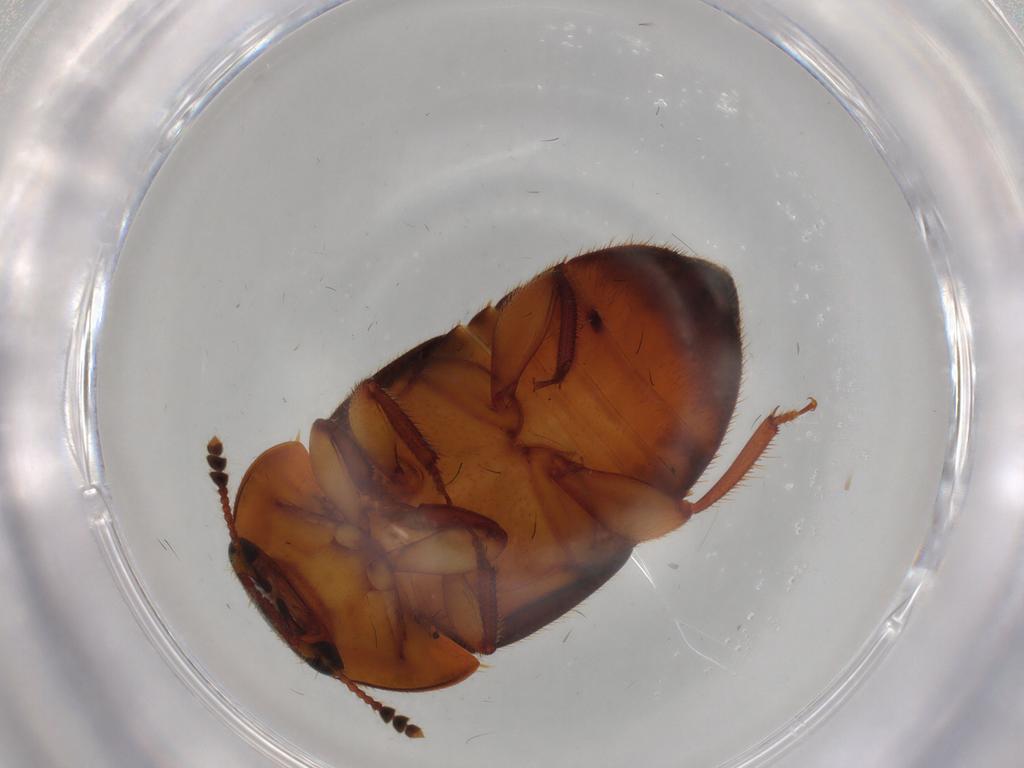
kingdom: Animalia
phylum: Arthropoda
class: Insecta
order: Coleoptera
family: Nitidulidae
